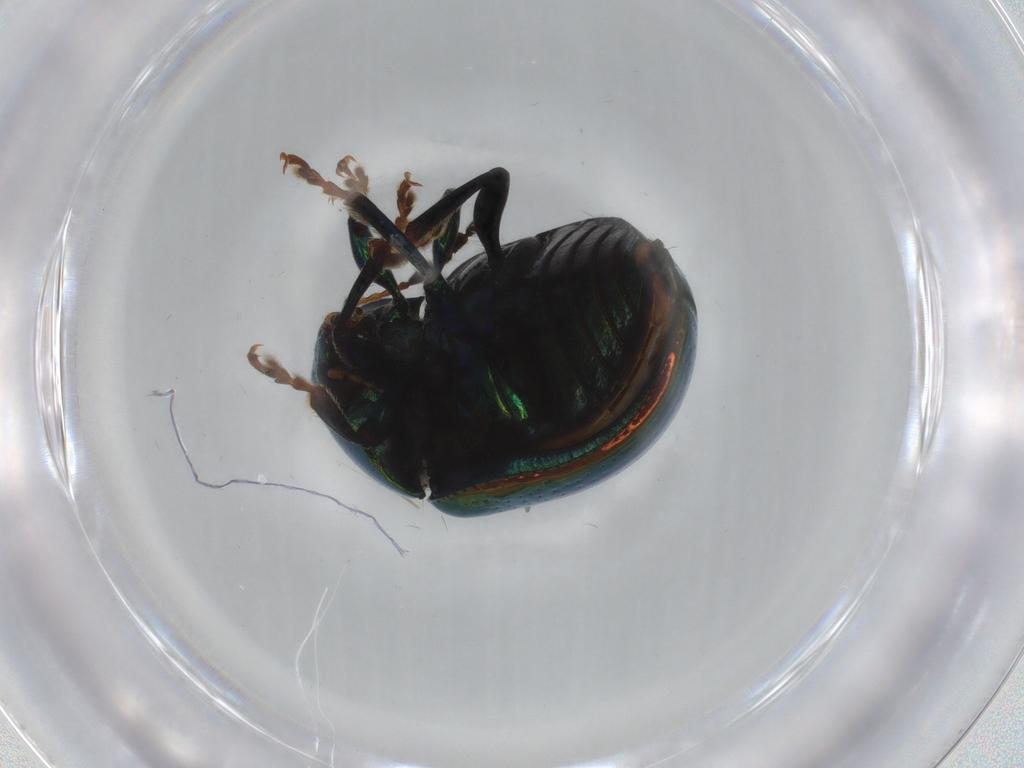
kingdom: Animalia
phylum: Arthropoda
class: Insecta
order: Coleoptera
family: Chrysomelidae
